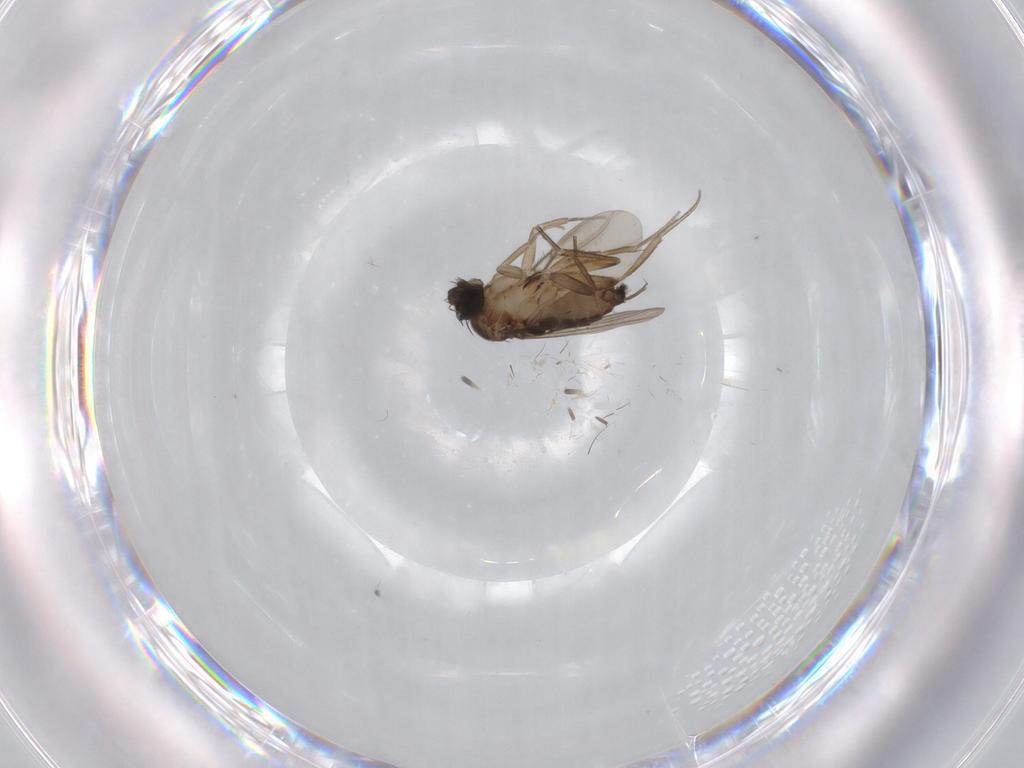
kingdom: Animalia
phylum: Arthropoda
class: Insecta
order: Diptera
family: Phoridae
